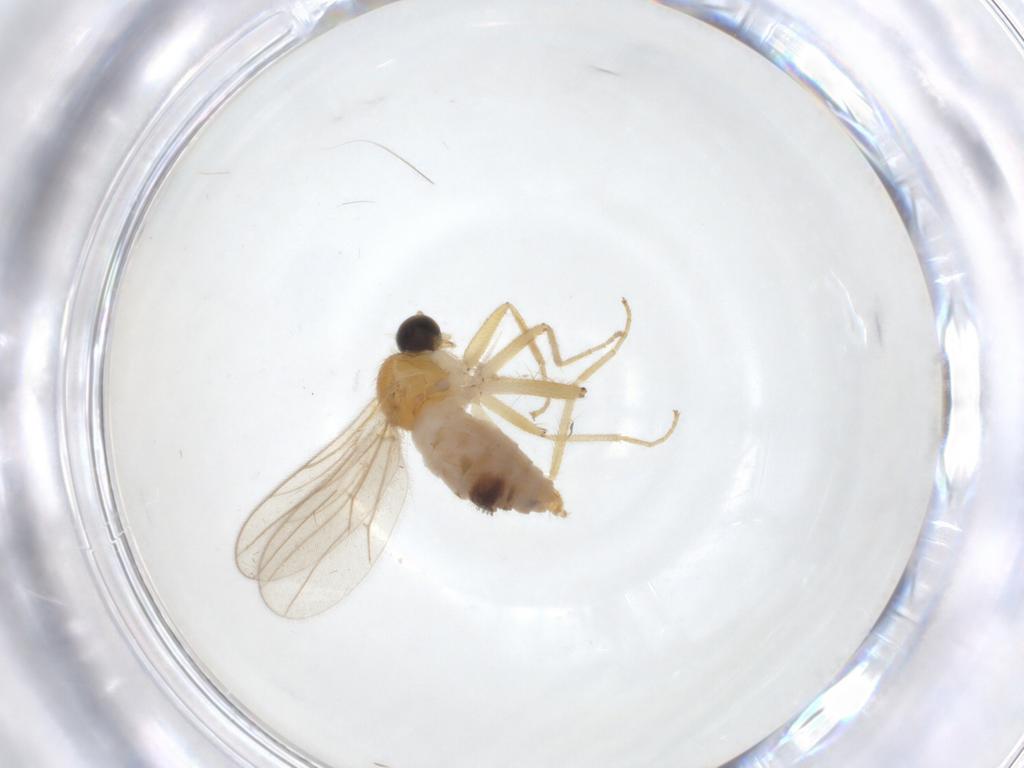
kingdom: Animalia
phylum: Arthropoda
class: Insecta
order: Diptera
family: Hybotidae
